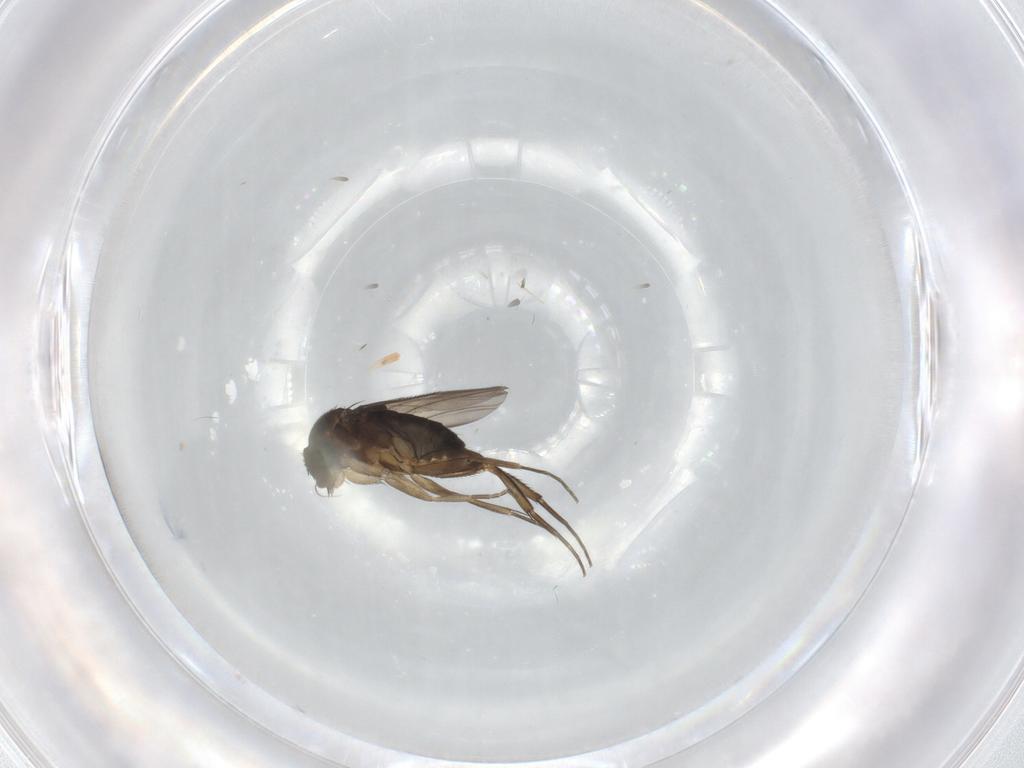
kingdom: Animalia
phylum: Arthropoda
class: Insecta
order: Diptera
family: Phoridae
